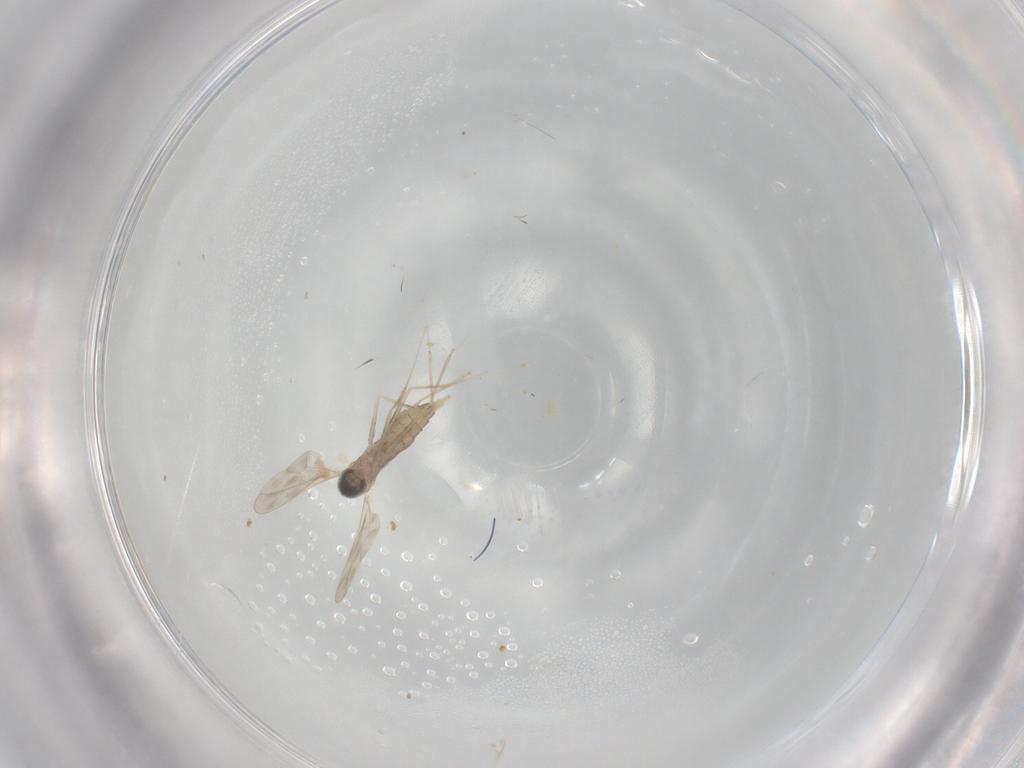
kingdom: Animalia
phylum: Arthropoda
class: Insecta
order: Diptera
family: Cecidomyiidae
